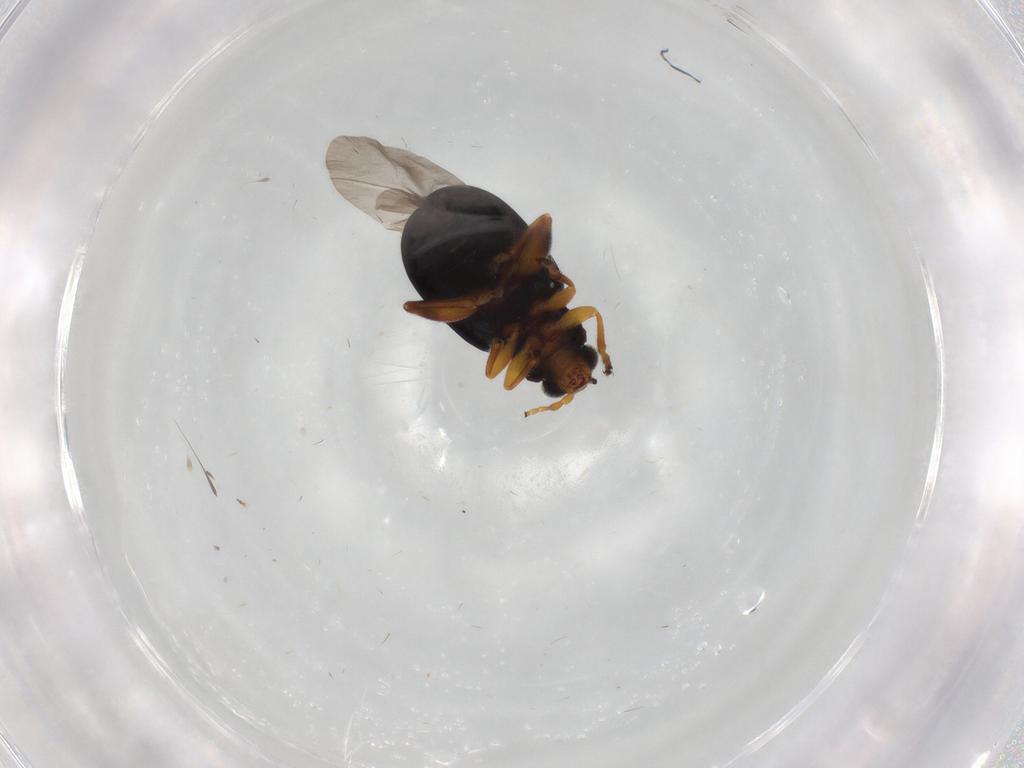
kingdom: Animalia
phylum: Arthropoda
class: Insecta
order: Coleoptera
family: Chrysomelidae
